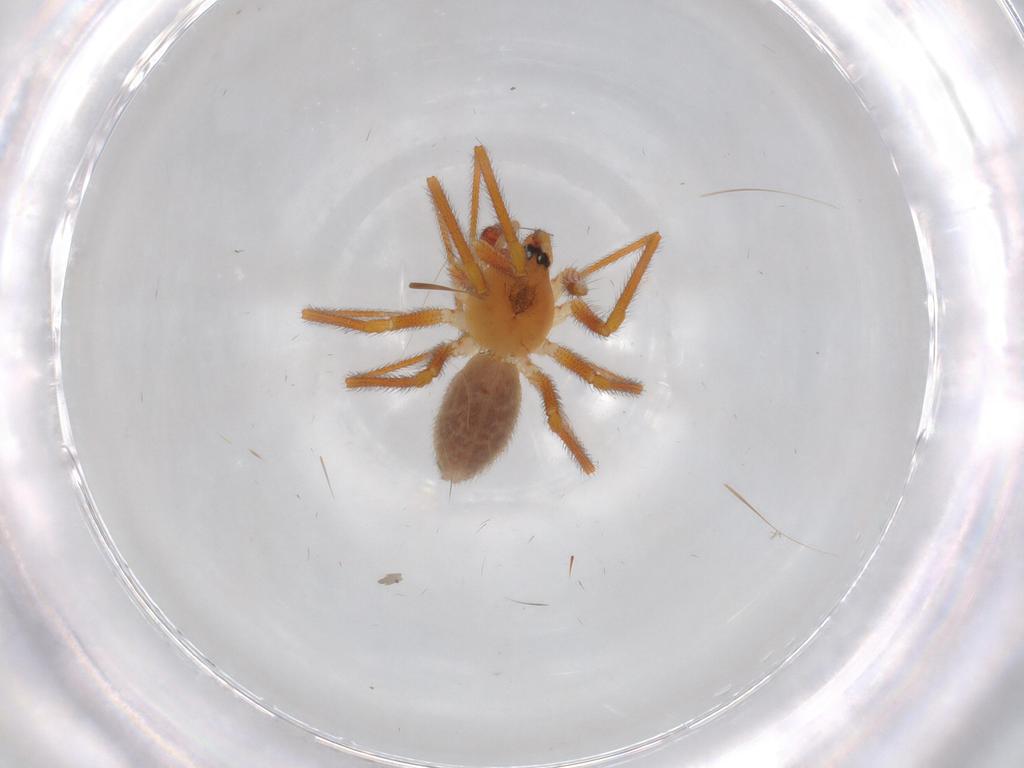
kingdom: Animalia
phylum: Arthropoda
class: Arachnida
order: Araneae
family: Linyphiidae
